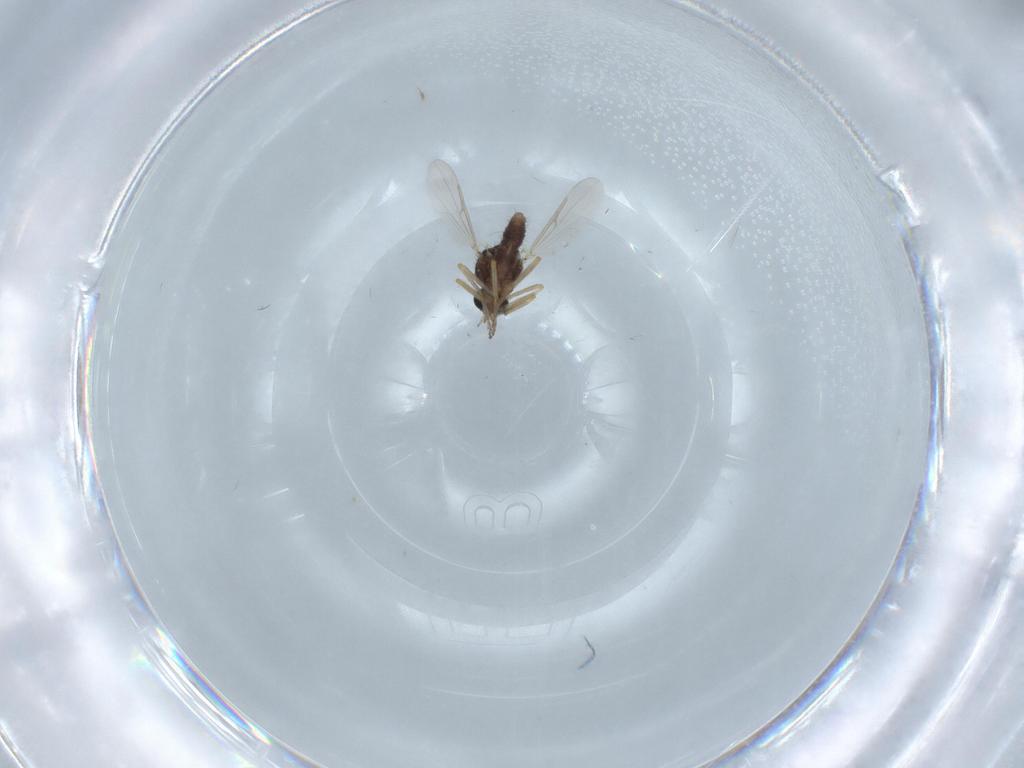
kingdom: Animalia
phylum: Arthropoda
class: Insecta
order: Diptera
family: Ceratopogonidae
